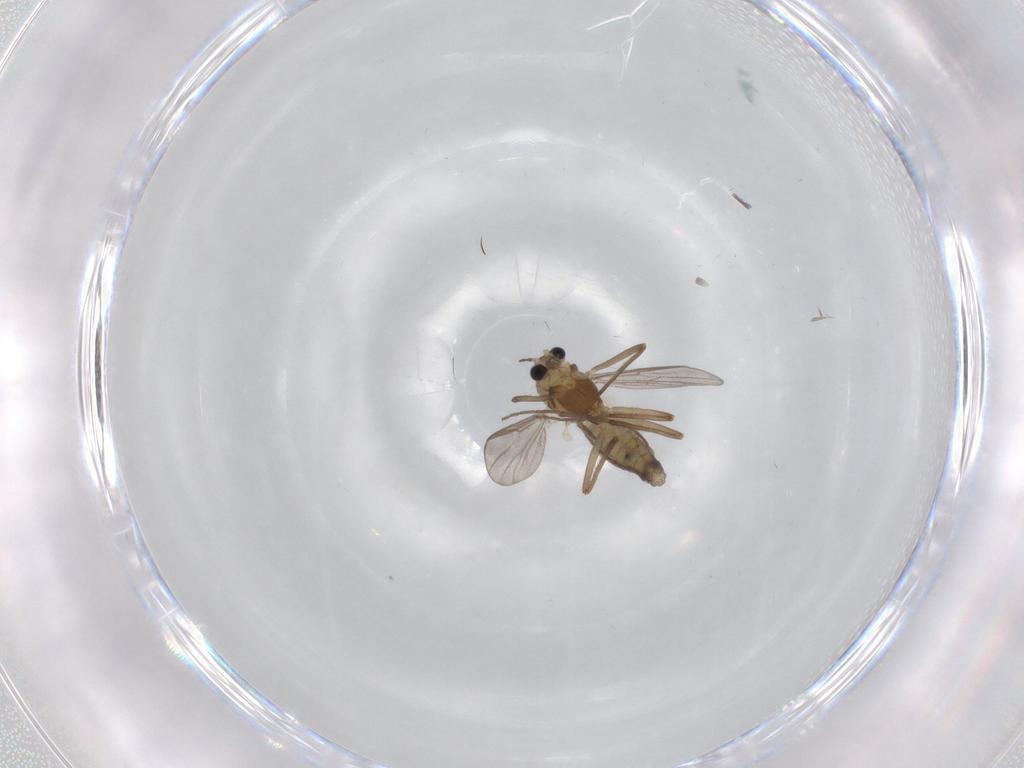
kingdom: Animalia
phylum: Arthropoda
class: Insecta
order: Diptera
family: Chironomidae
